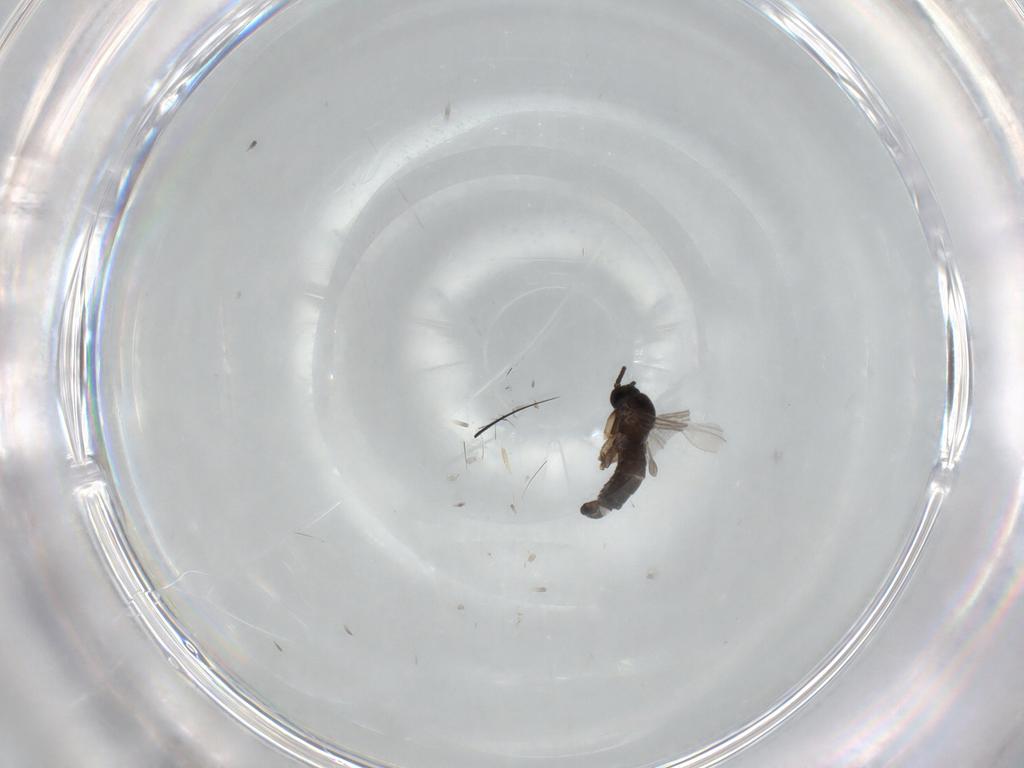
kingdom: Animalia
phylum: Arthropoda
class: Insecta
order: Diptera
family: Sciaridae
